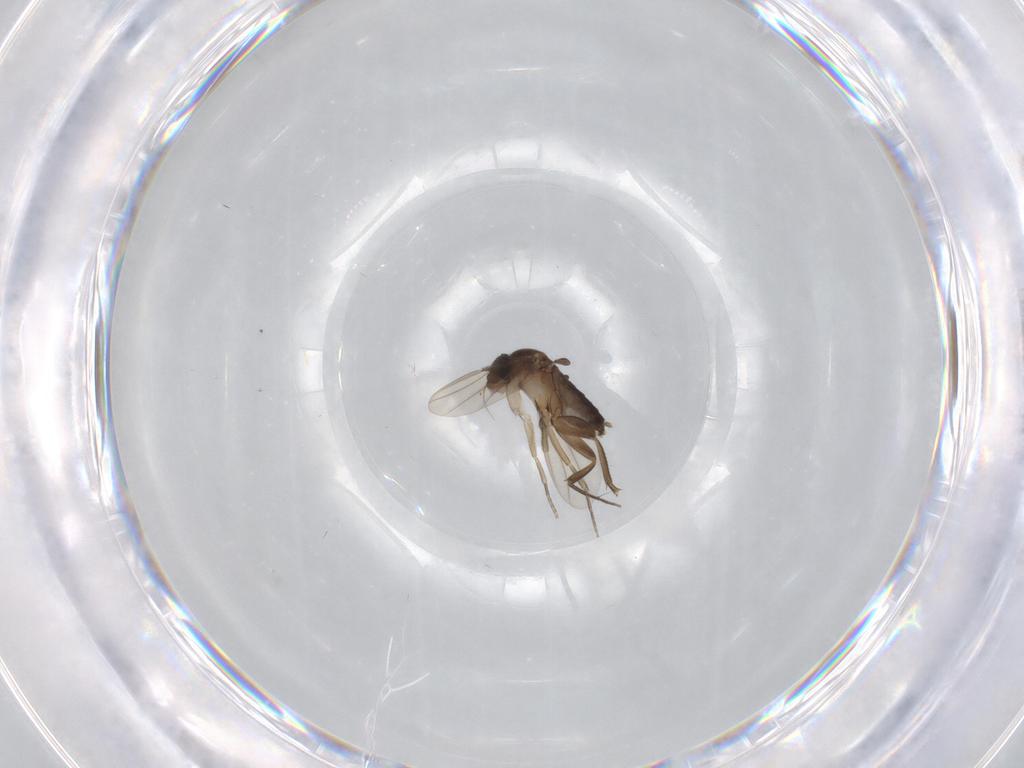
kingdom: Animalia
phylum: Arthropoda
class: Insecta
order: Diptera
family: Phoridae
